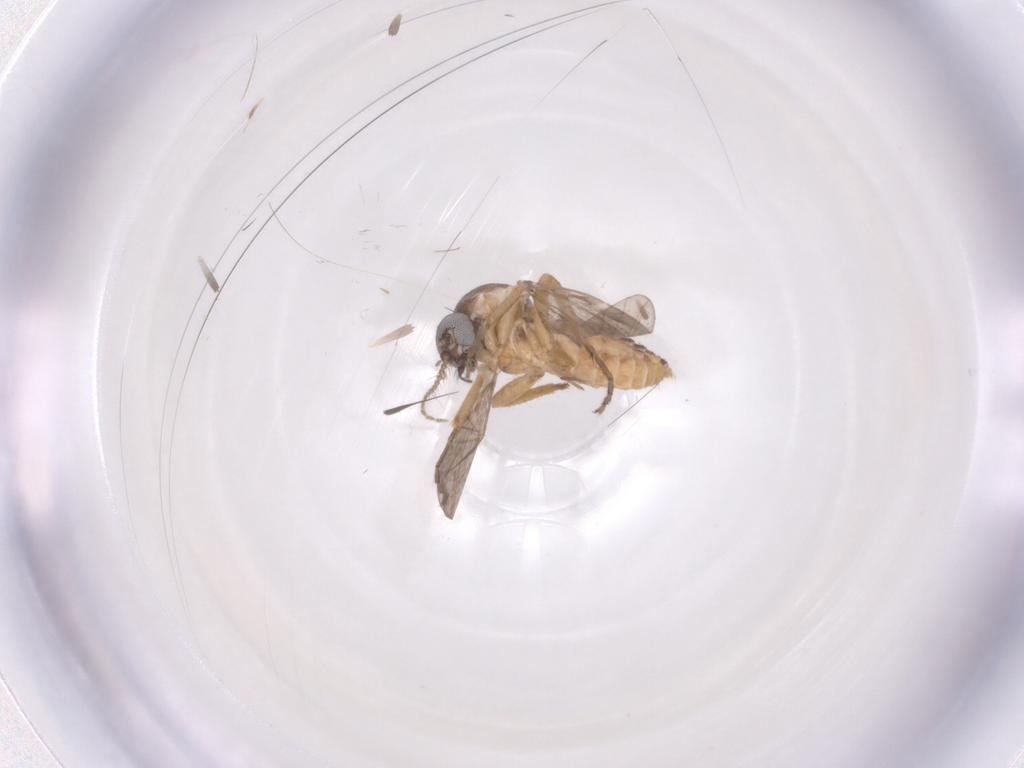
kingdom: Animalia
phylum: Arthropoda
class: Insecta
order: Diptera
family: Ceratopogonidae
